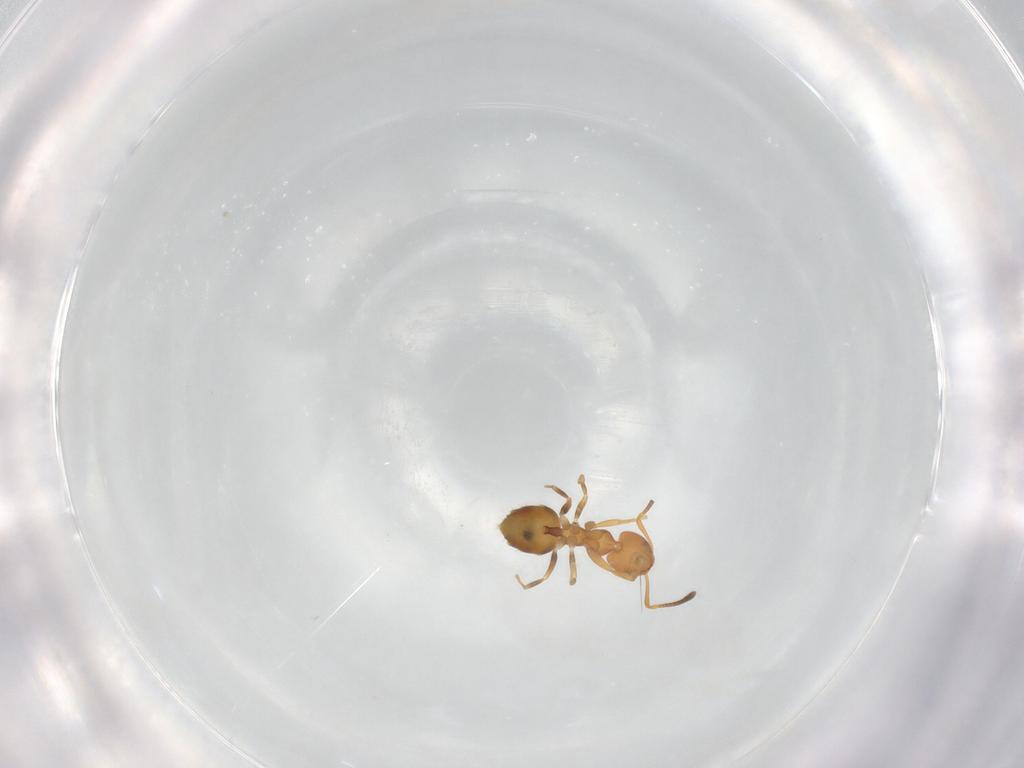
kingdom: Animalia
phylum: Arthropoda
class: Insecta
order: Hymenoptera
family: Formicidae
